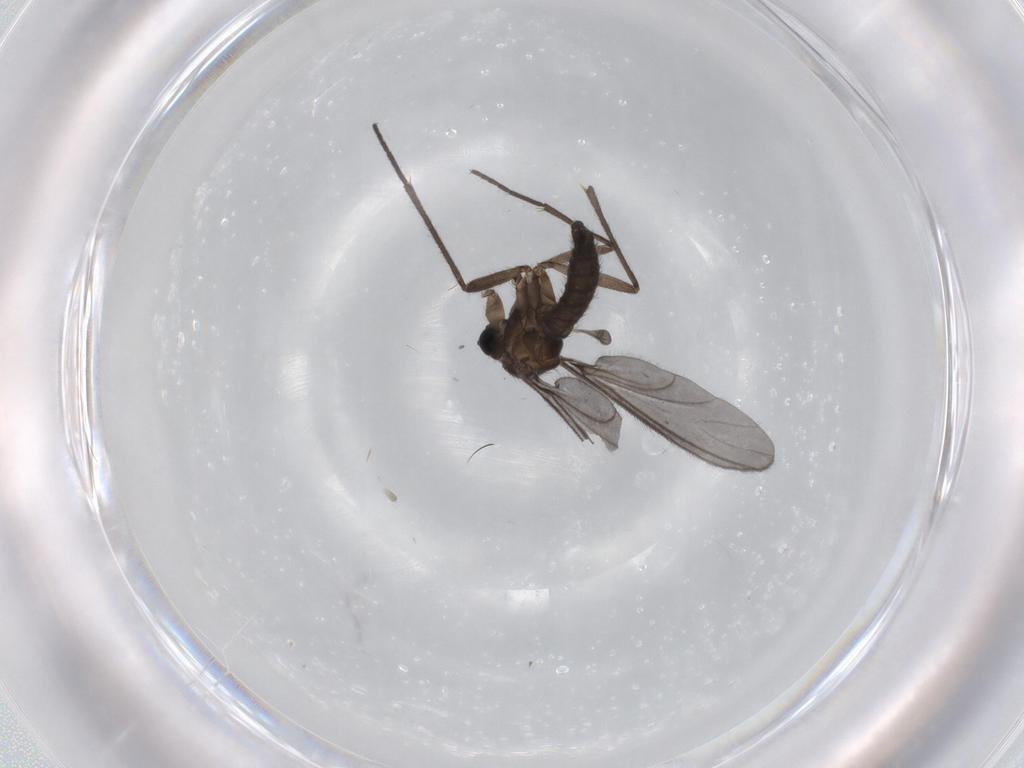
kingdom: Animalia
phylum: Arthropoda
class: Insecta
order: Diptera
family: Sciaridae
